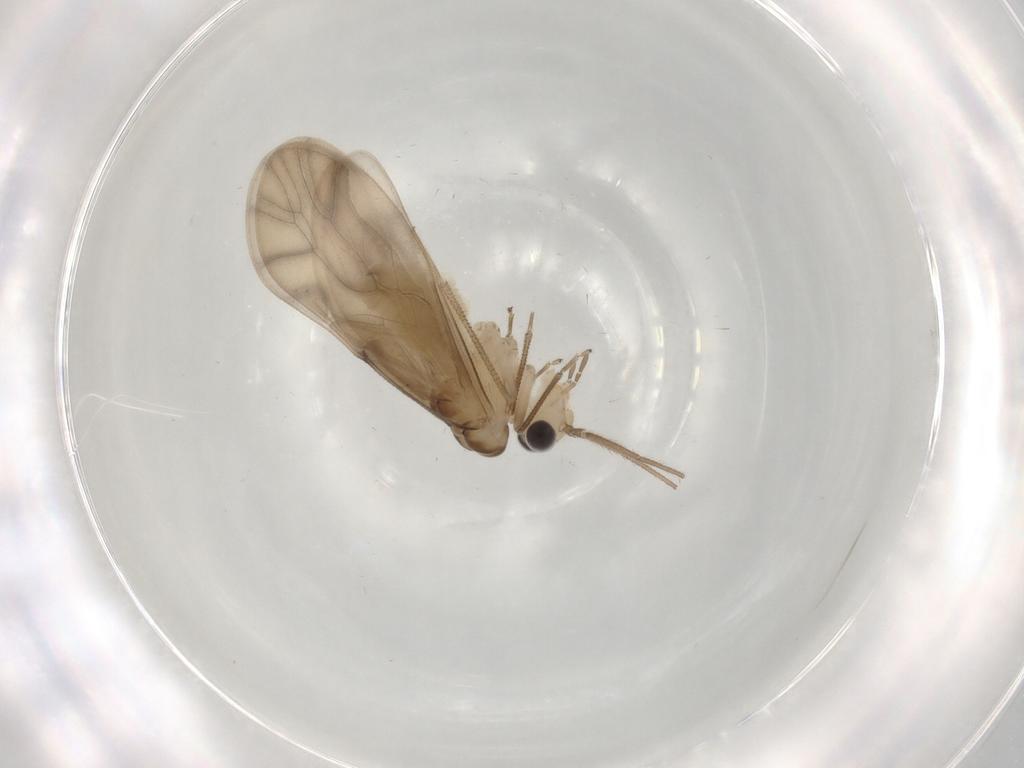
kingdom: Animalia
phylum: Arthropoda
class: Insecta
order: Psocodea
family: Caeciliusidae
